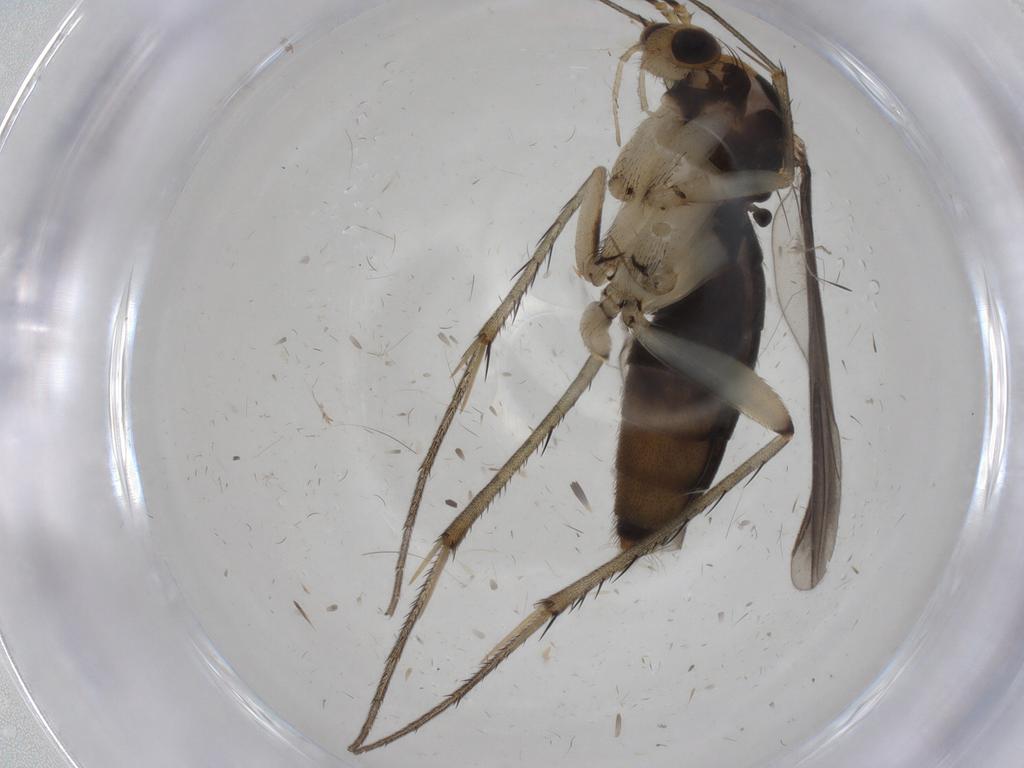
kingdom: Animalia
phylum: Arthropoda
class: Insecta
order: Diptera
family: Mycetophilidae
